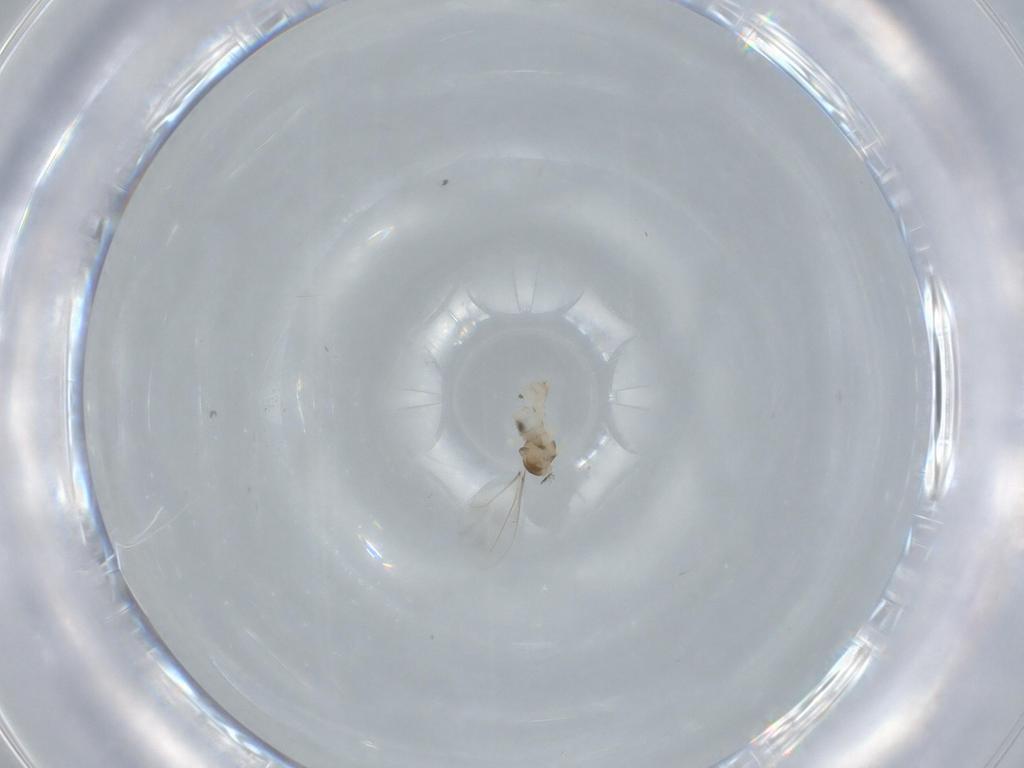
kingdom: Animalia
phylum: Arthropoda
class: Insecta
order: Diptera
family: Cecidomyiidae
